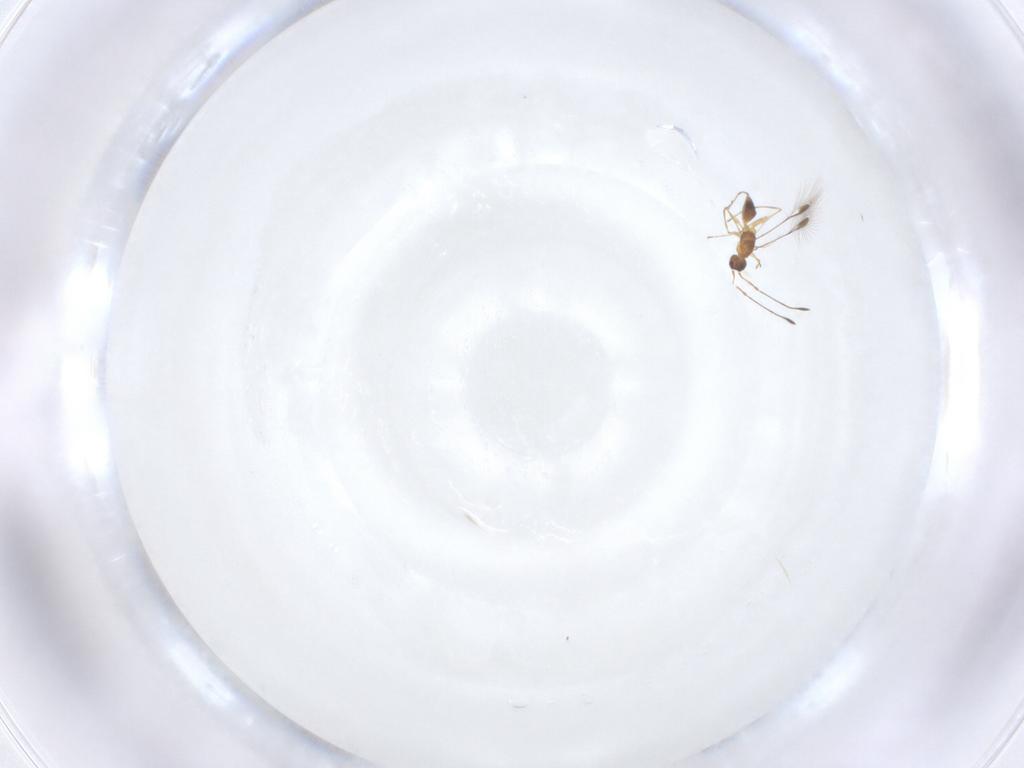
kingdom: Animalia
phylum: Arthropoda
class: Insecta
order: Hymenoptera
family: Mymaridae
